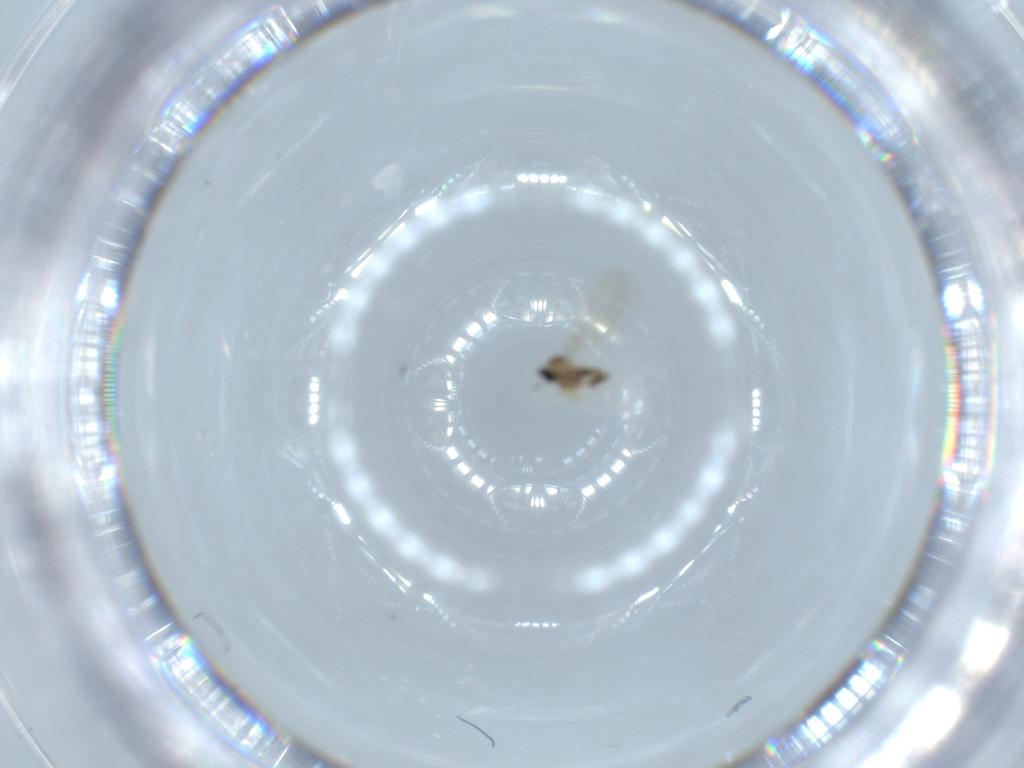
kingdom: Animalia
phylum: Arthropoda
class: Insecta
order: Diptera
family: Cecidomyiidae
